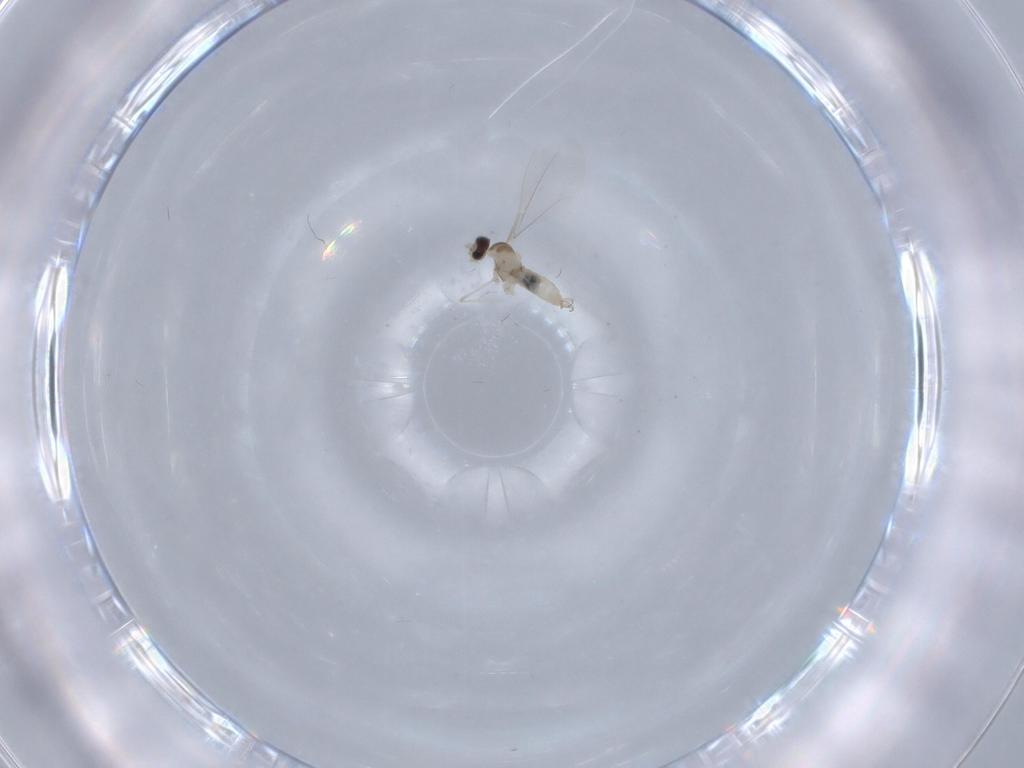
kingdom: Animalia
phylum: Arthropoda
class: Insecta
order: Diptera
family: Cecidomyiidae
